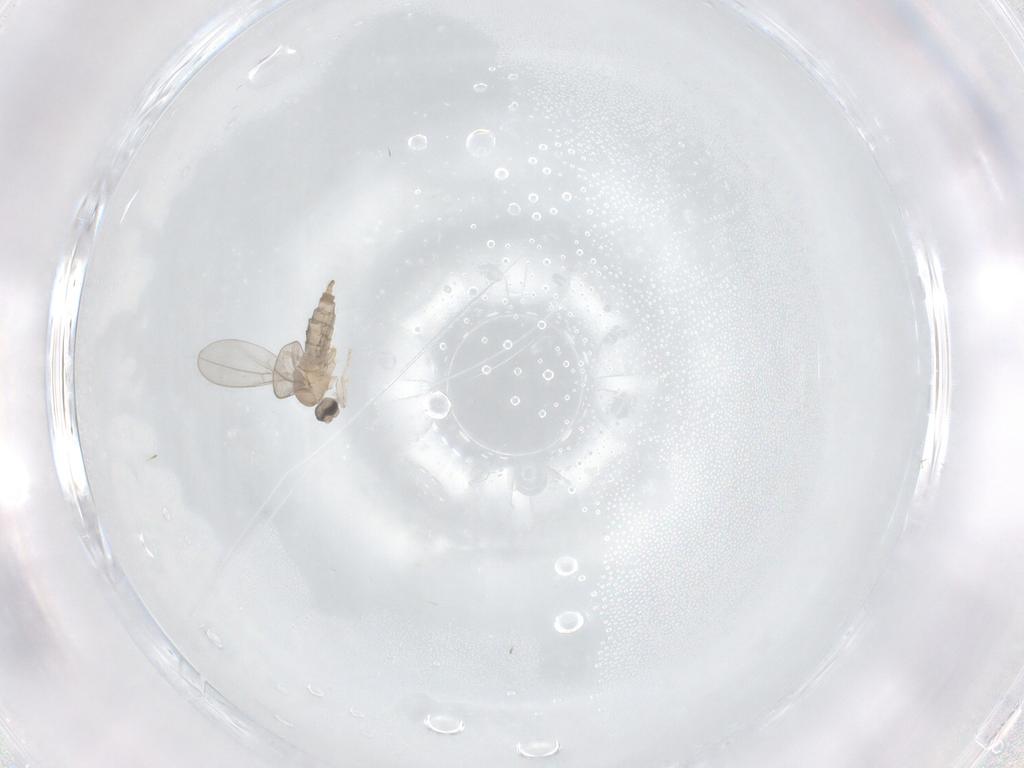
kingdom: Animalia
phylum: Arthropoda
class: Insecta
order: Diptera
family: Cecidomyiidae
